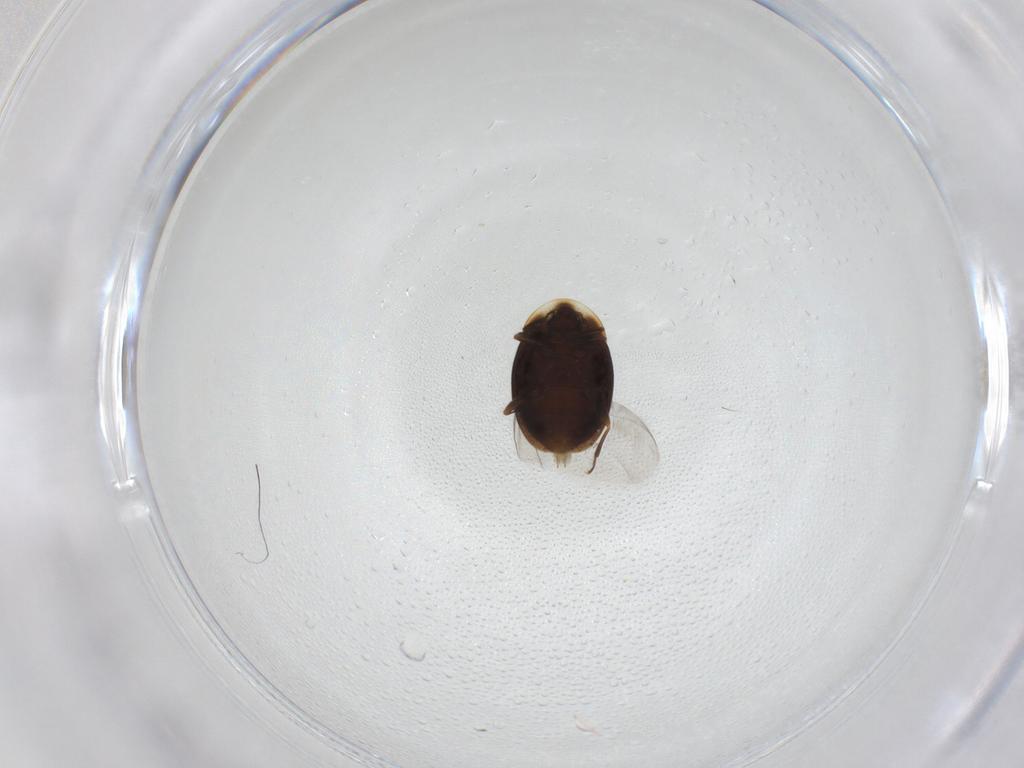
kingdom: Animalia
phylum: Arthropoda
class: Insecta
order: Coleoptera
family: Corylophidae
